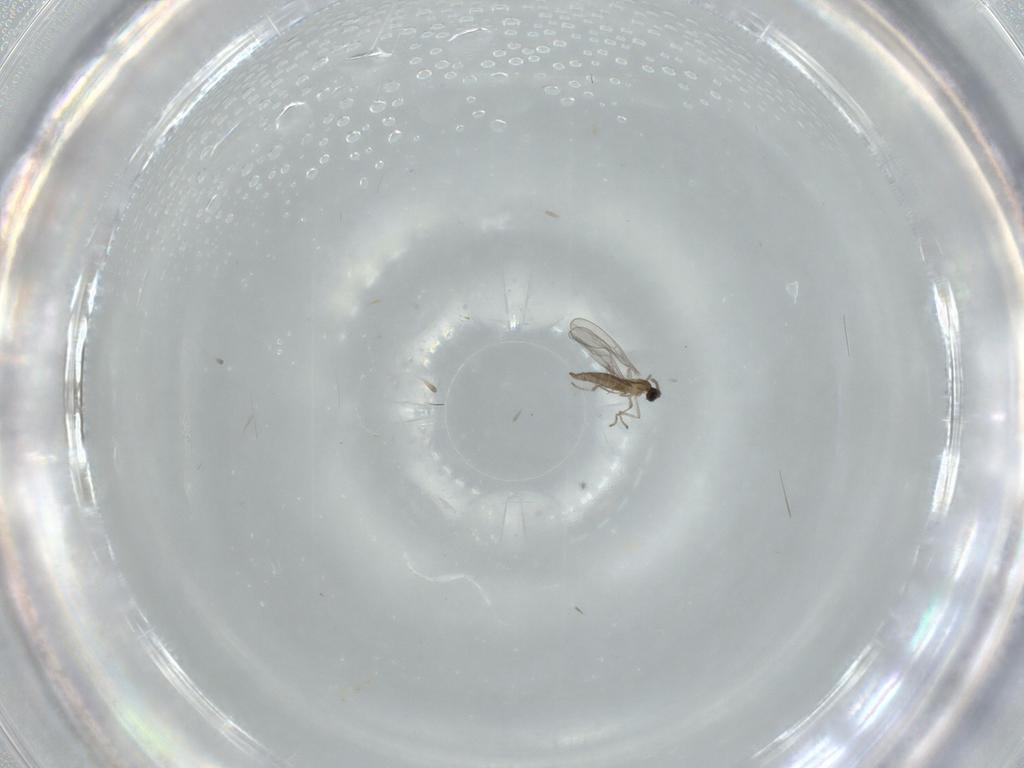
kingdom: Animalia
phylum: Arthropoda
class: Insecta
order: Diptera
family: Cecidomyiidae
